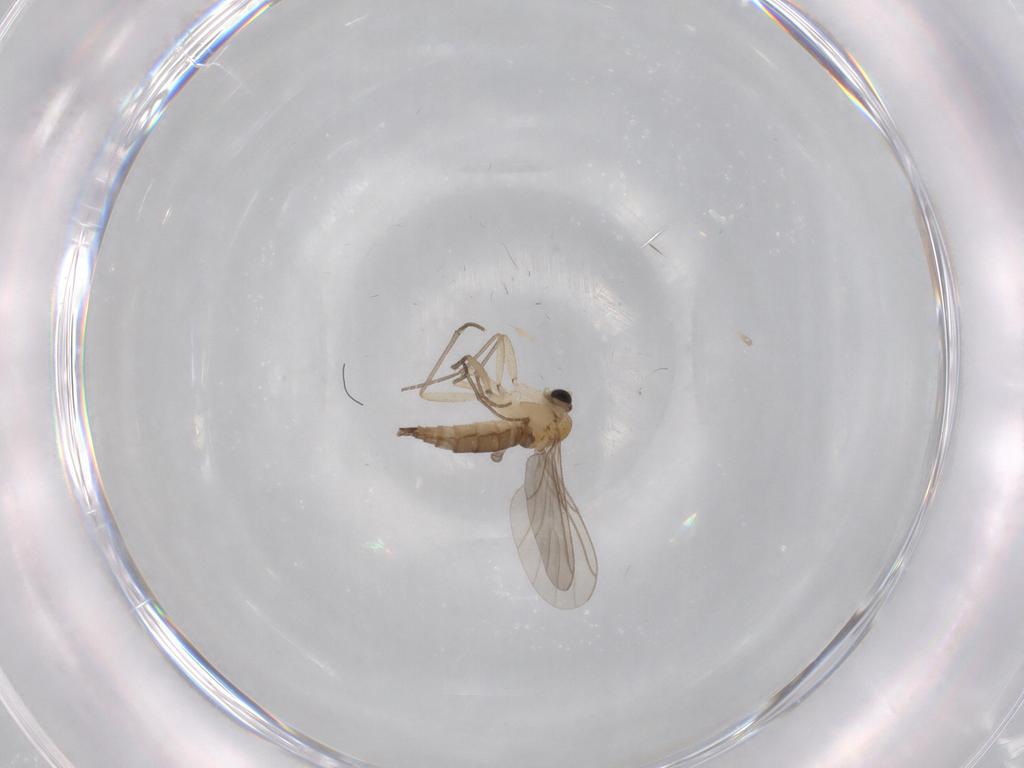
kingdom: Animalia
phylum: Arthropoda
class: Insecta
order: Diptera
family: Sciaridae
